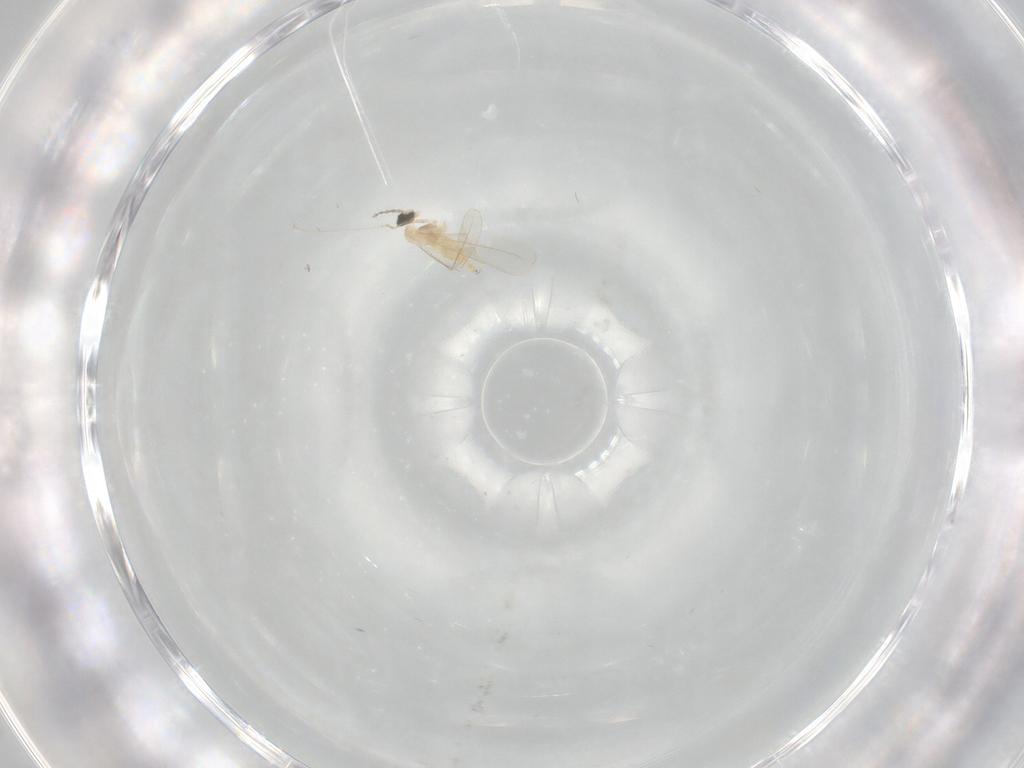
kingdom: Animalia
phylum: Arthropoda
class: Insecta
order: Diptera
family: Cecidomyiidae
